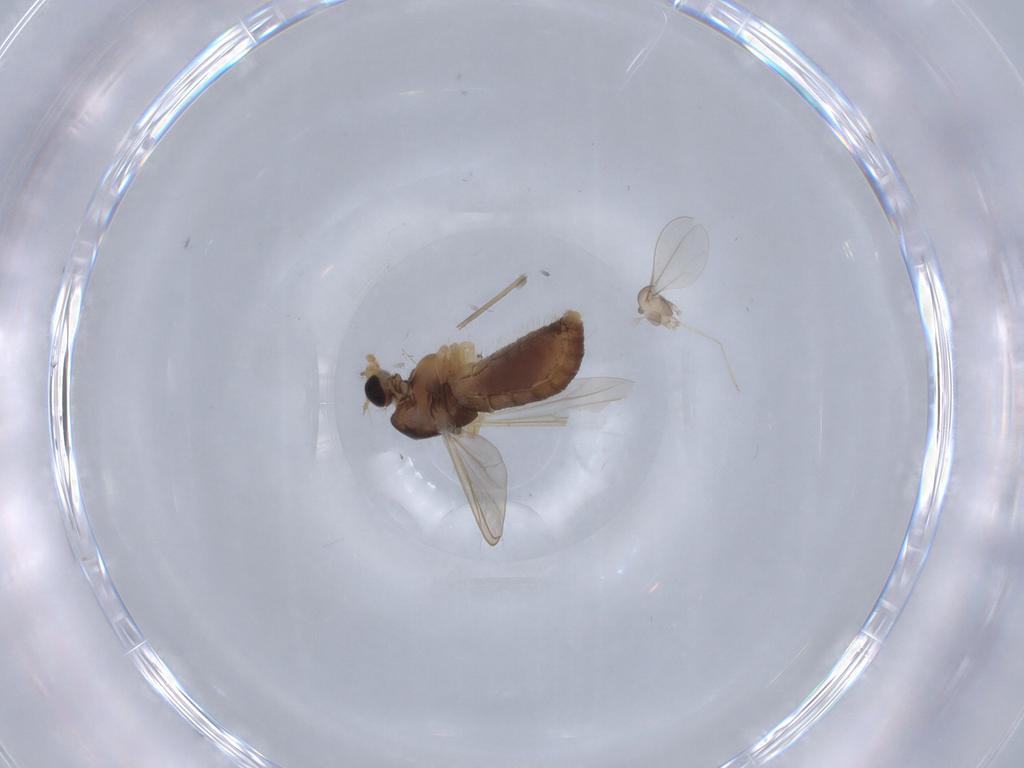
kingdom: Animalia
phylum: Arthropoda
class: Insecta
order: Diptera
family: Chironomidae
